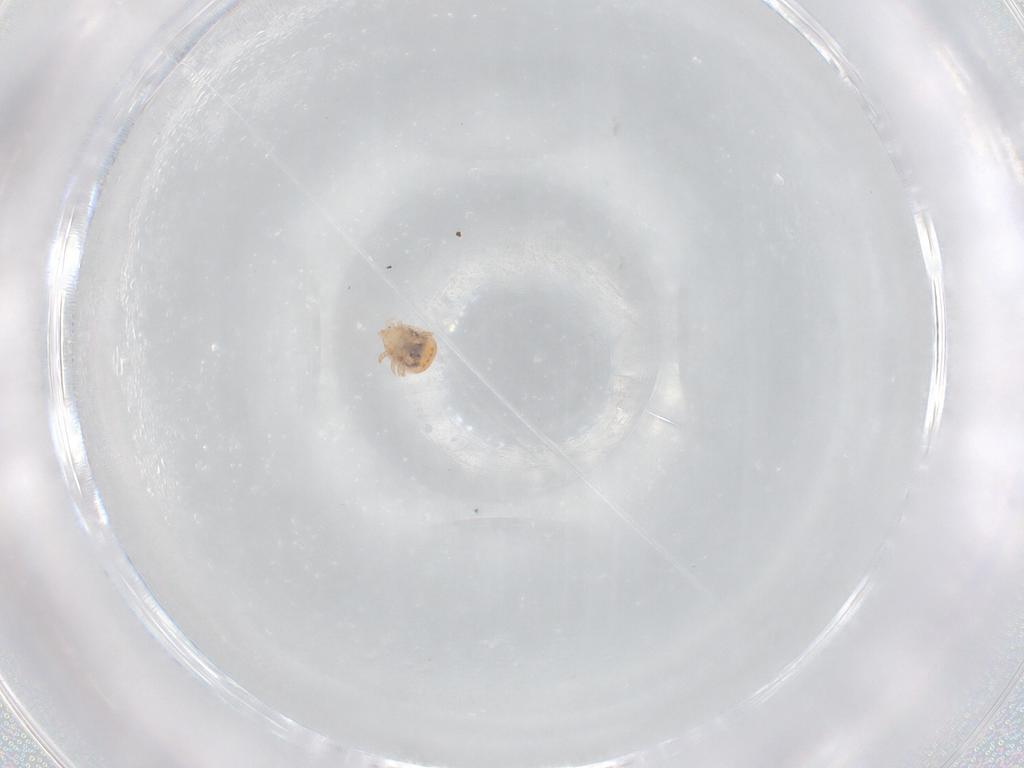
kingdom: Animalia
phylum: Arthropoda
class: Arachnida
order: Mesostigmata
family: Zerconidae
